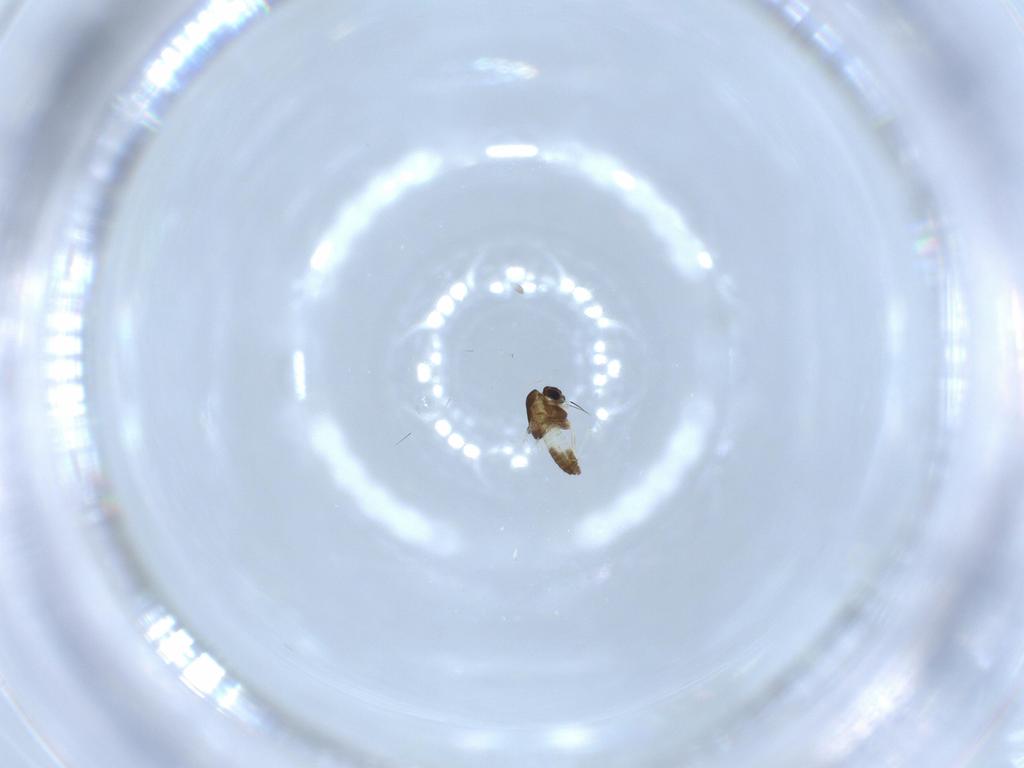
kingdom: Animalia
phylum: Arthropoda
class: Insecta
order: Diptera
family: Chironomidae
